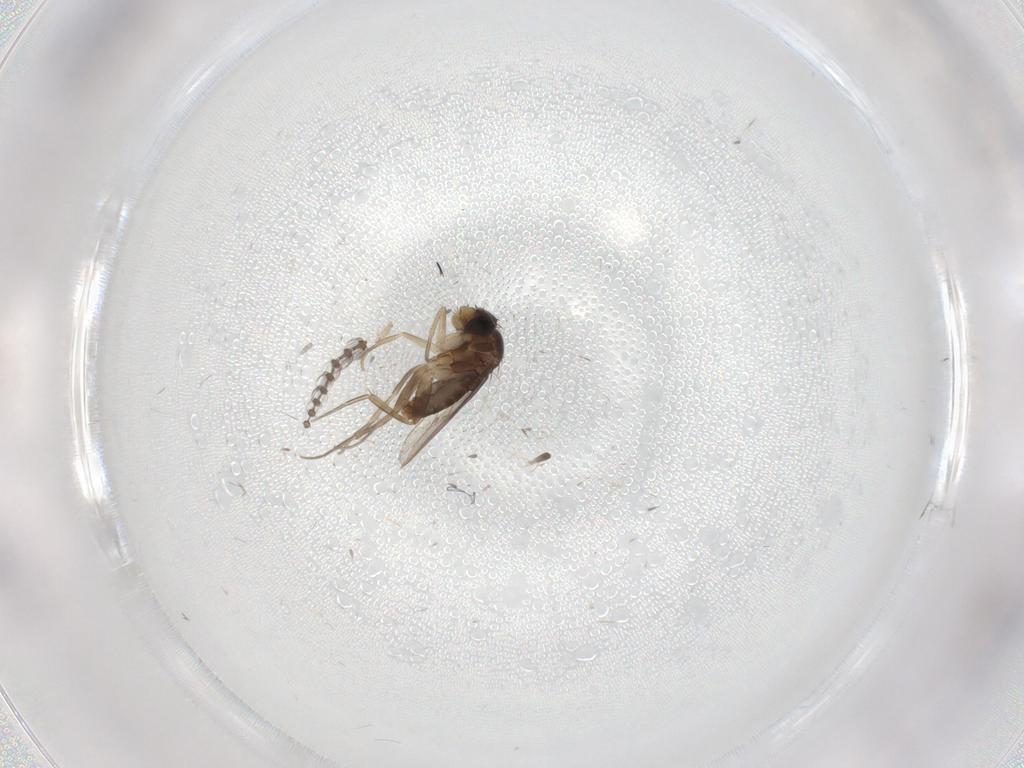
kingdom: Animalia
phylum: Arthropoda
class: Insecta
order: Diptera
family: Psychodidae
